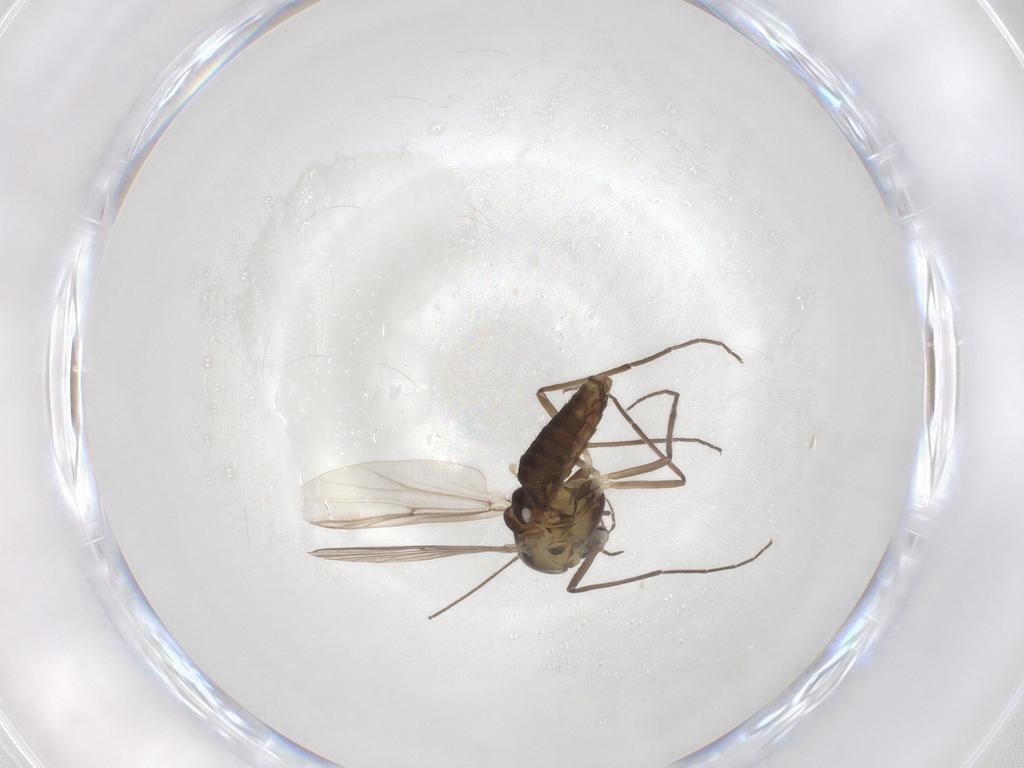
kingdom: Animalia
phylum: Arthropoda
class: Insecta
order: Diptera
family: Chironomidae
